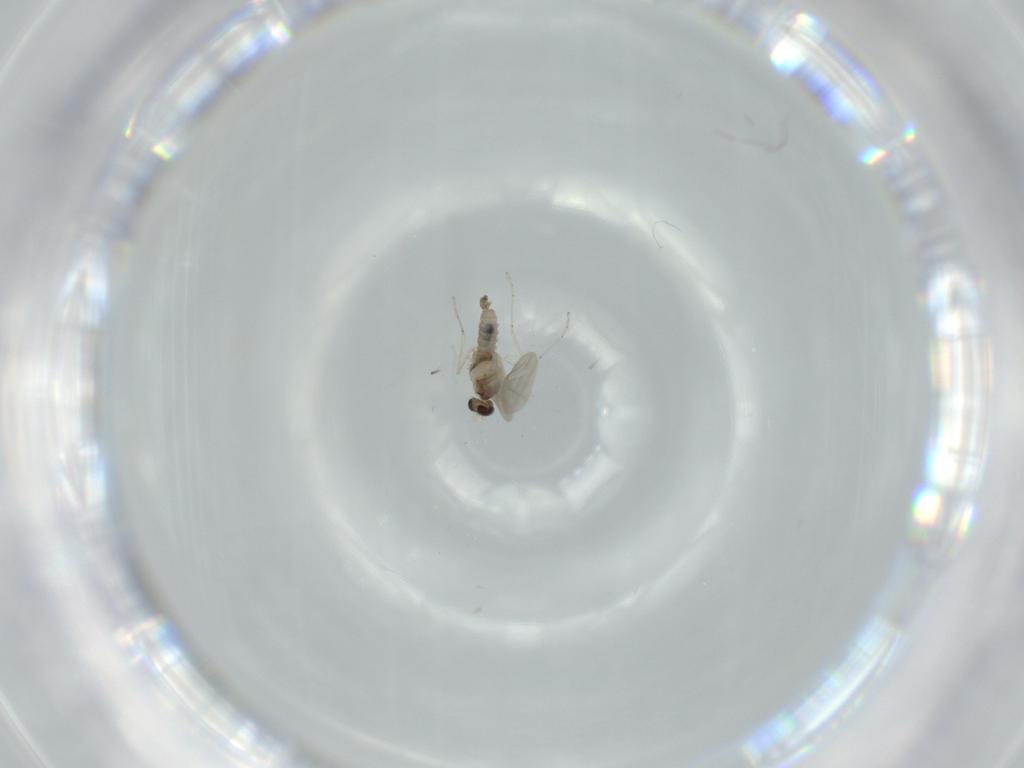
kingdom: Animalia
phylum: Arthropoda
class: Insecta
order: Diptera
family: Cecidomyiidae
